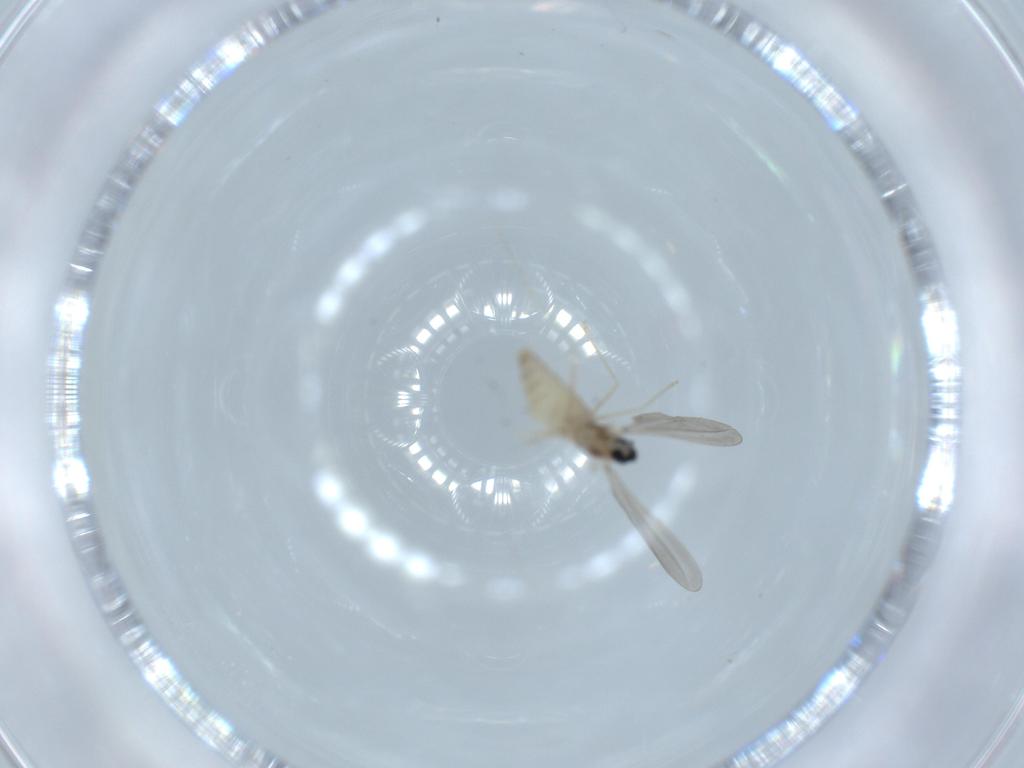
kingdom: Animalia
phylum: Arthropoda
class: Insecta
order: Diptera
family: Cecidomyiidae
